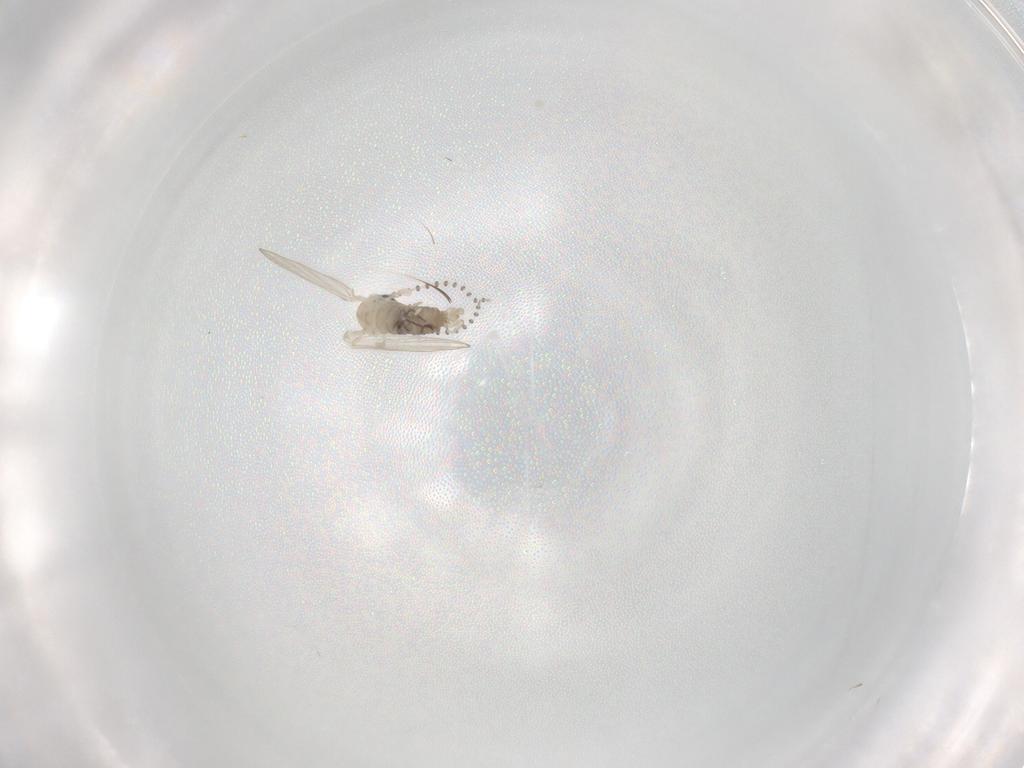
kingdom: Animalia
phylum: Arthropoda
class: Insecta
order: Diptera
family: Psychodidae
